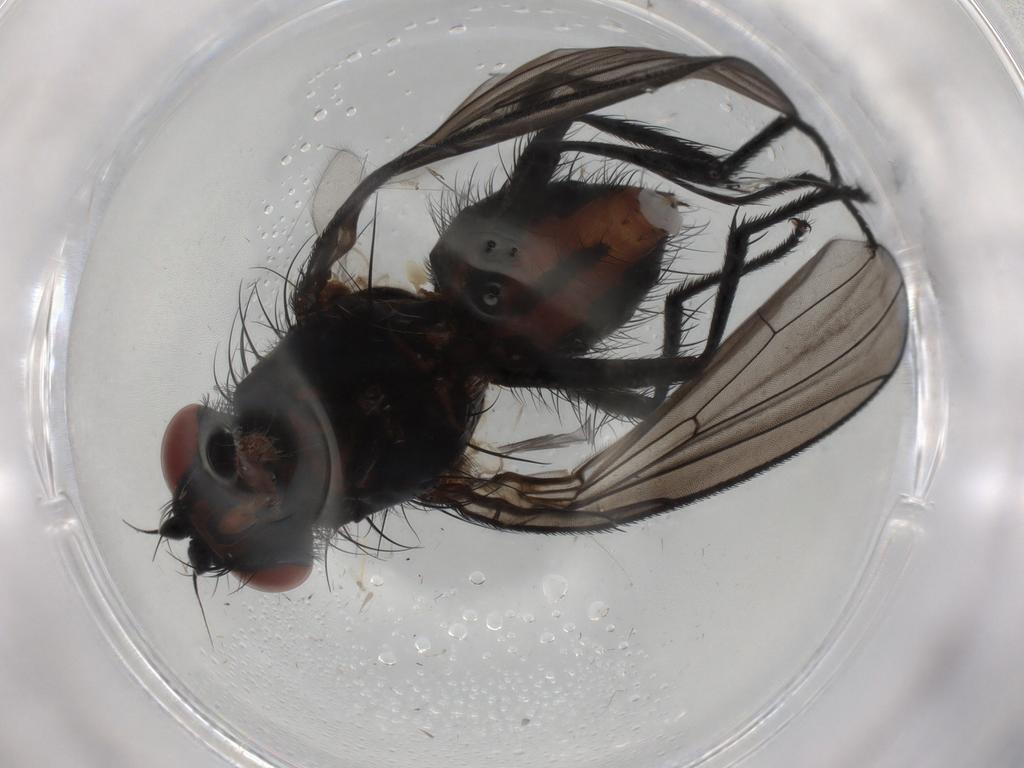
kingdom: Animalia
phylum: Arthropoda
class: Insecta
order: Diptera
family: Anthomyiidae
